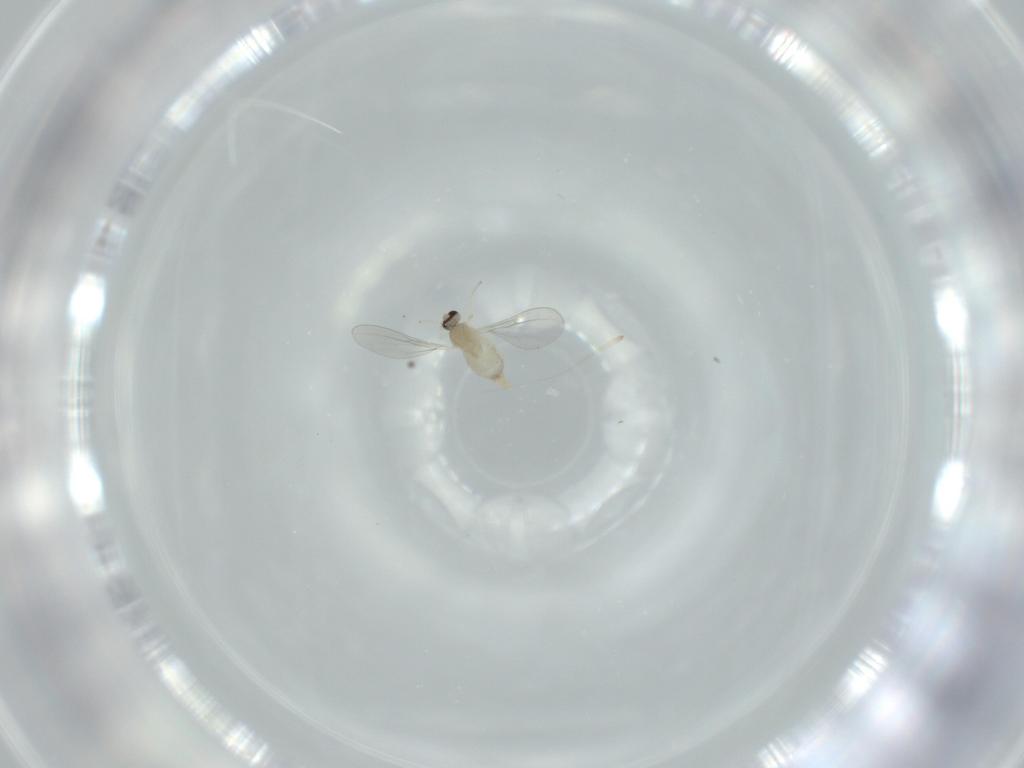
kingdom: Animalia
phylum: Arthropoda
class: Insecta
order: Diptera
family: Cecidomyiidae
